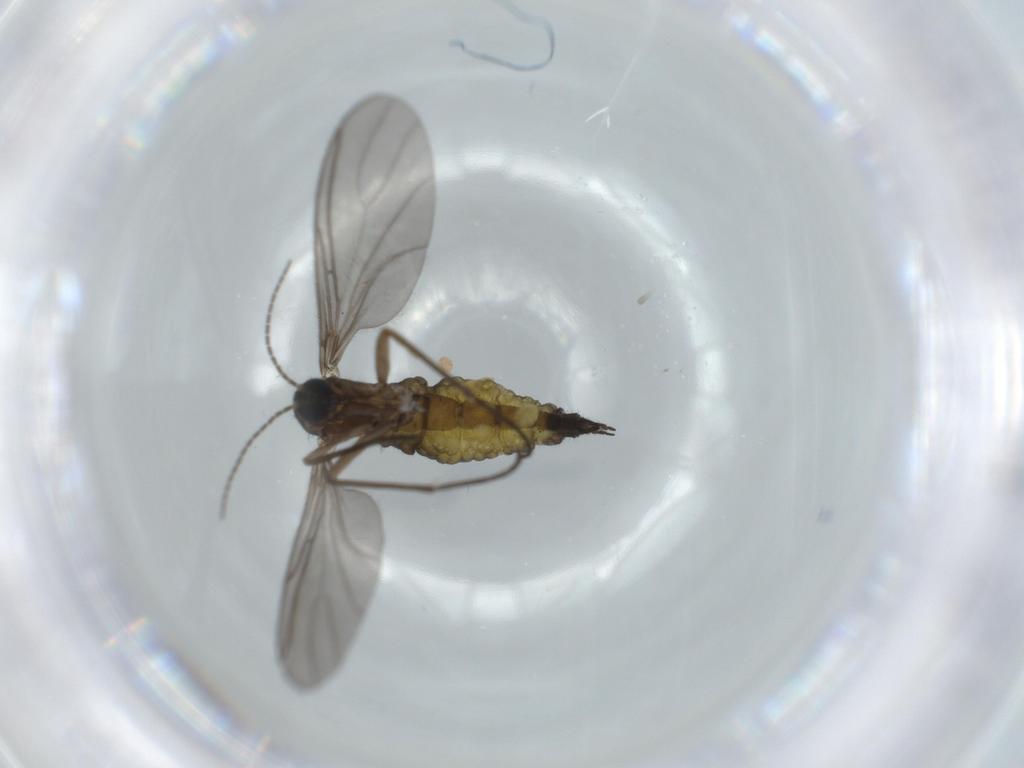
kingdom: Animalia
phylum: Arthropoda
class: Insecta
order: Diptera
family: Sciaridae
